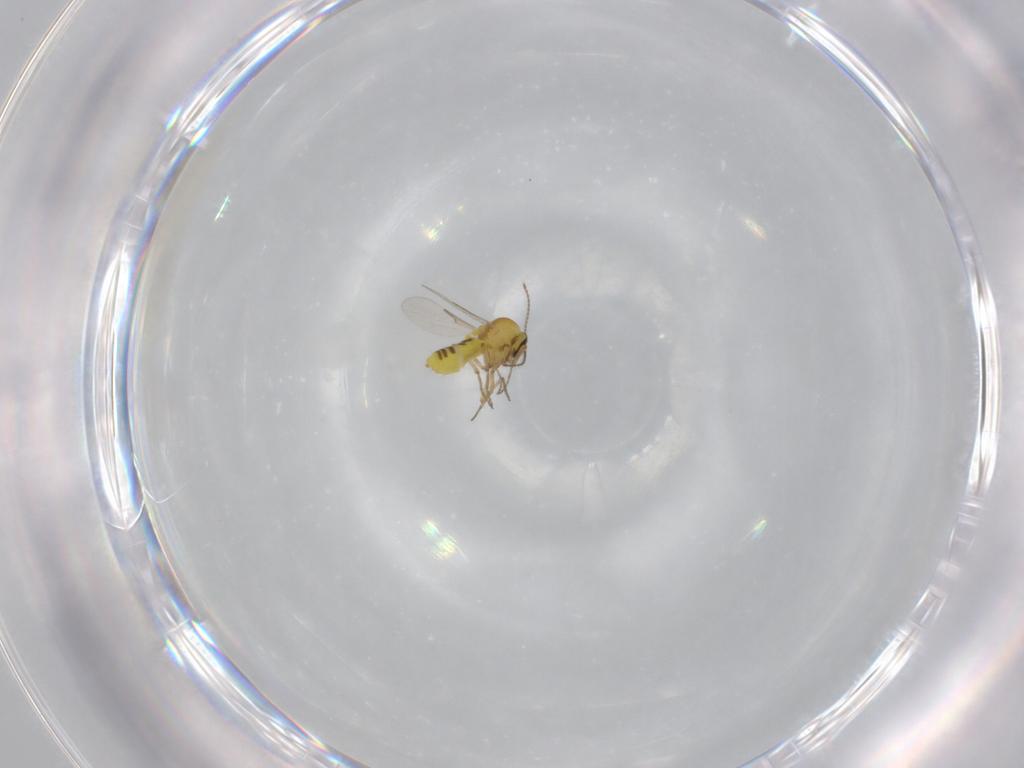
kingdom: Animalia
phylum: Arthropoda
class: Insecta
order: Diptera
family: Ceratopogonidae
